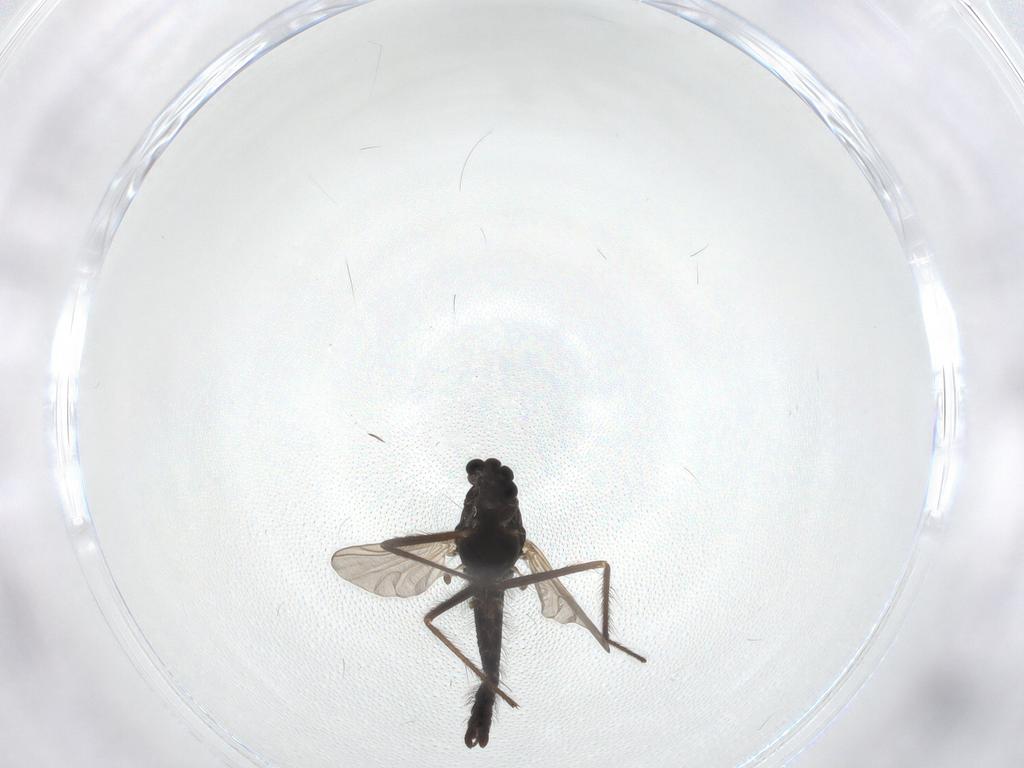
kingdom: Animalia
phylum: Arthropoda
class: Insecta
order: Diptera
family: Chironomidae
